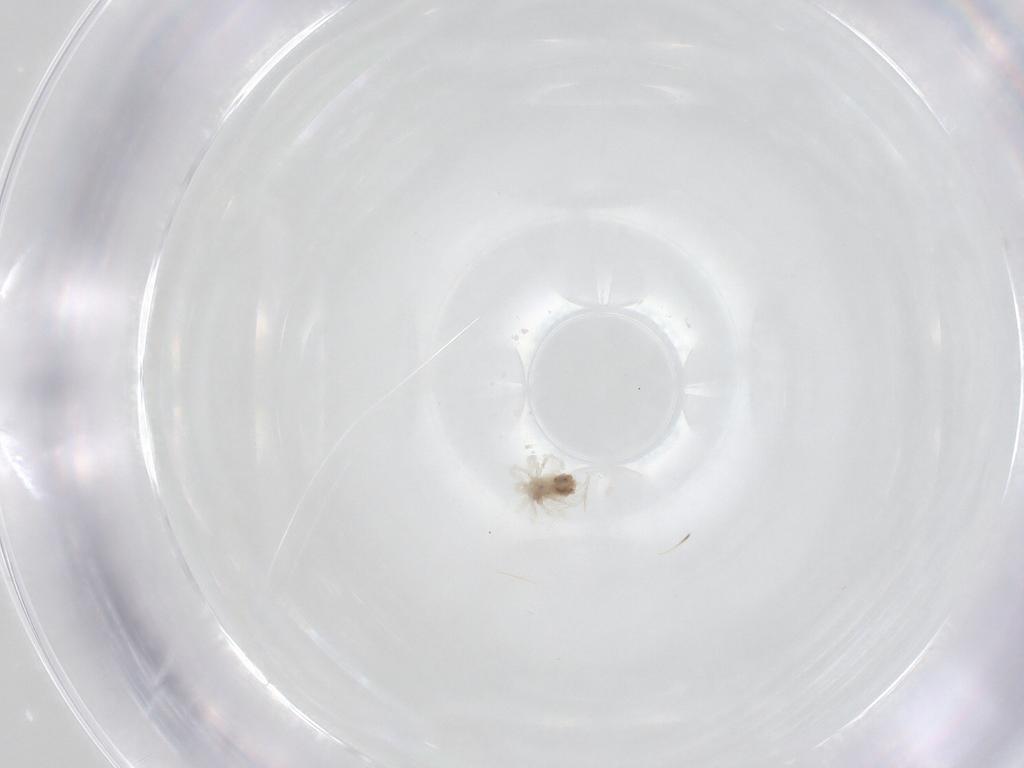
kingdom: Animalia
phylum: Arthropoda
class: Arachnida
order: Trombidiformes
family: Anystidae
